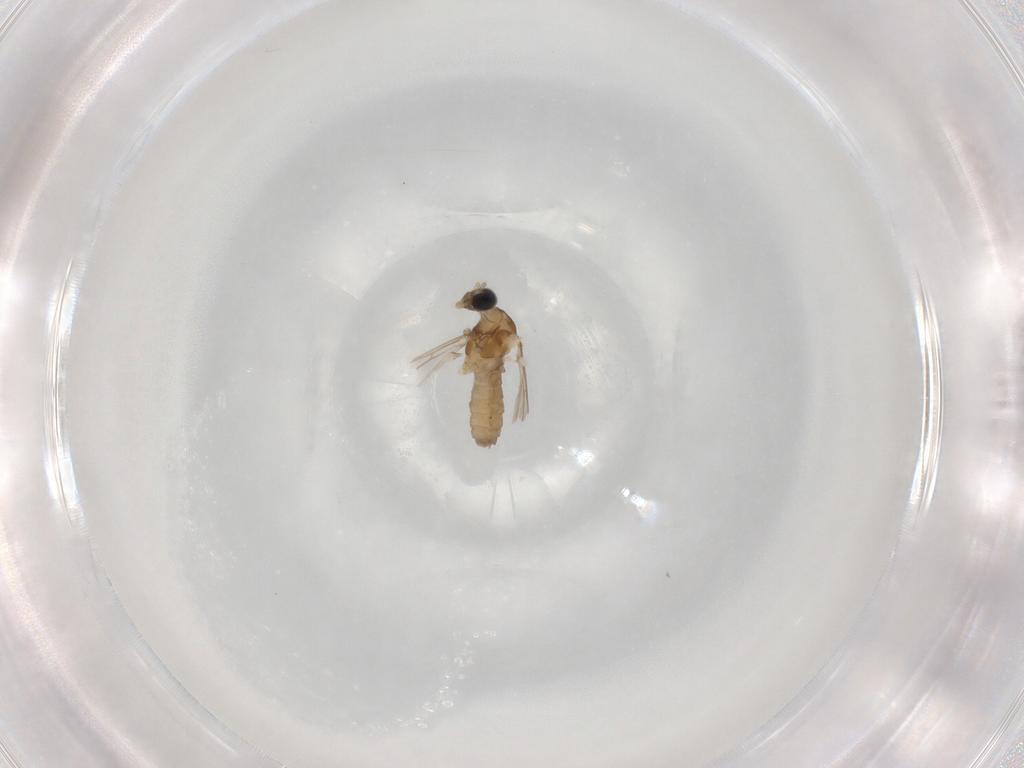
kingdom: Animalia
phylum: Arthropoda
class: Insecta
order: Diptera
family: Cecidomyiidae
